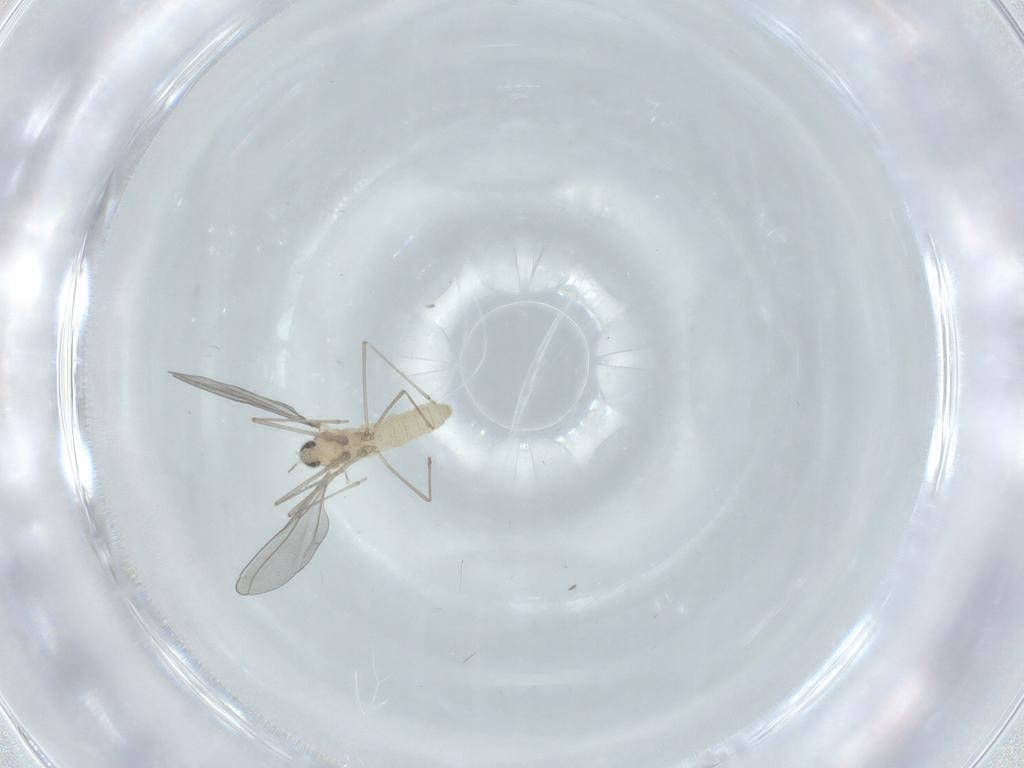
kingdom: Animalia
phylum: Arthropoda
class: Insecta
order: Diptera
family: Cecidomyiidae
